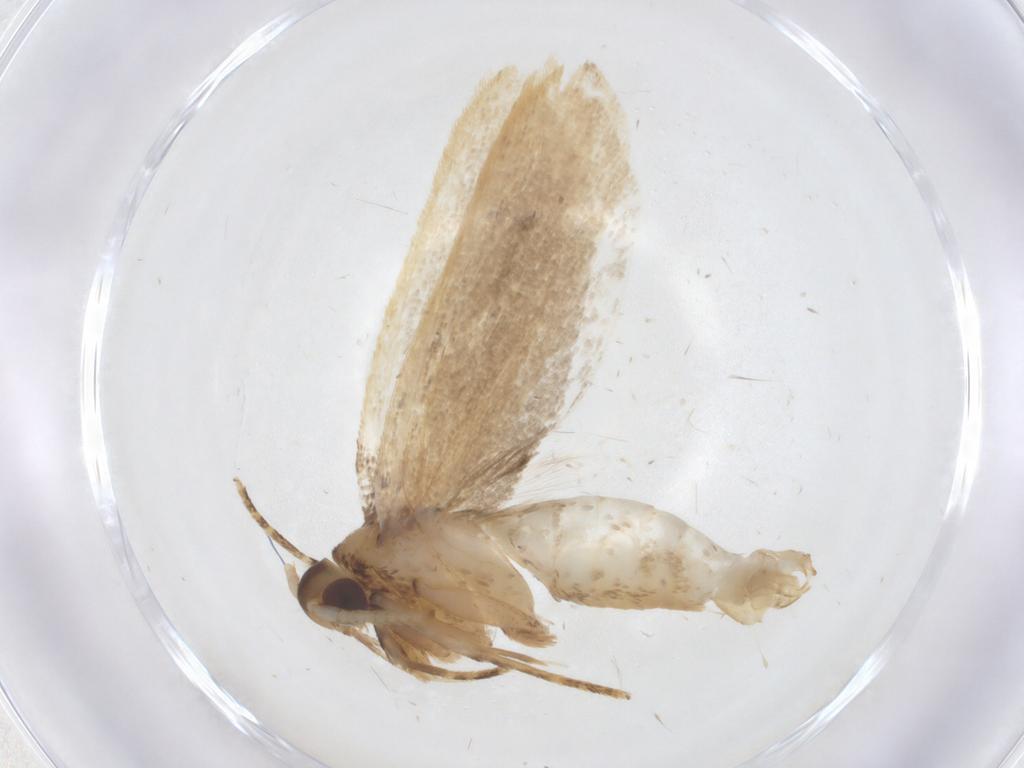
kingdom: Animalia
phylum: Arthropoda
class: Insecta
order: Lepidoptera
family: Lecithoceridae
